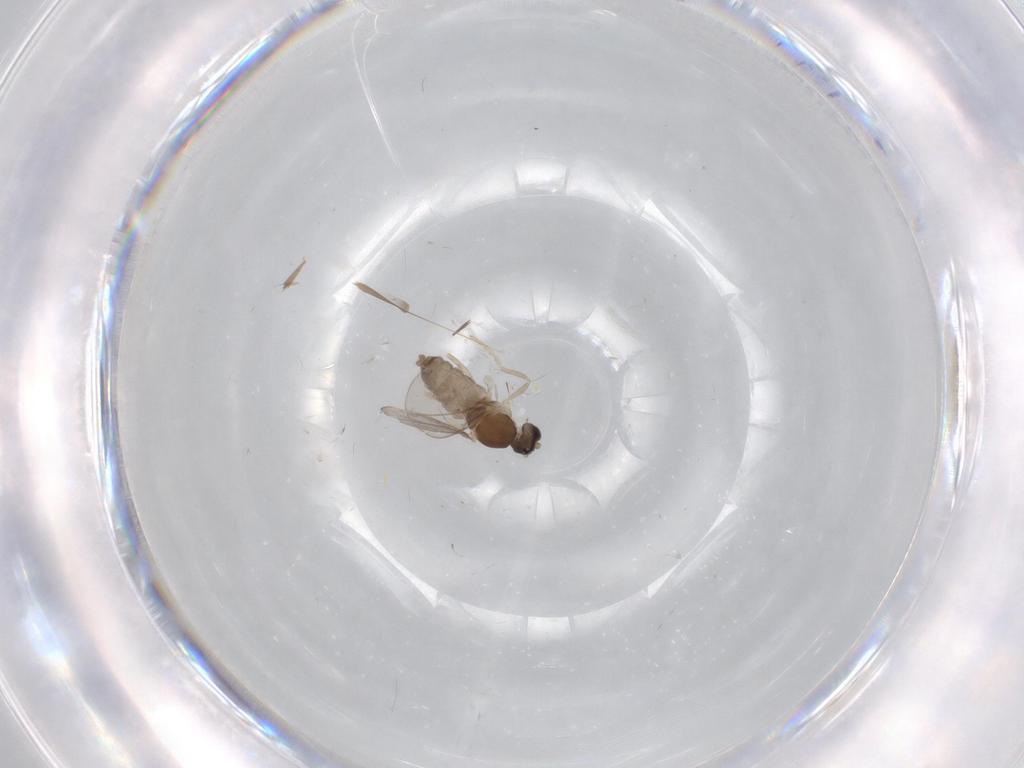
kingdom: Animalia
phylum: Arthropoda
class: Insecta
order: Diptera
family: Cecidomyiidae
